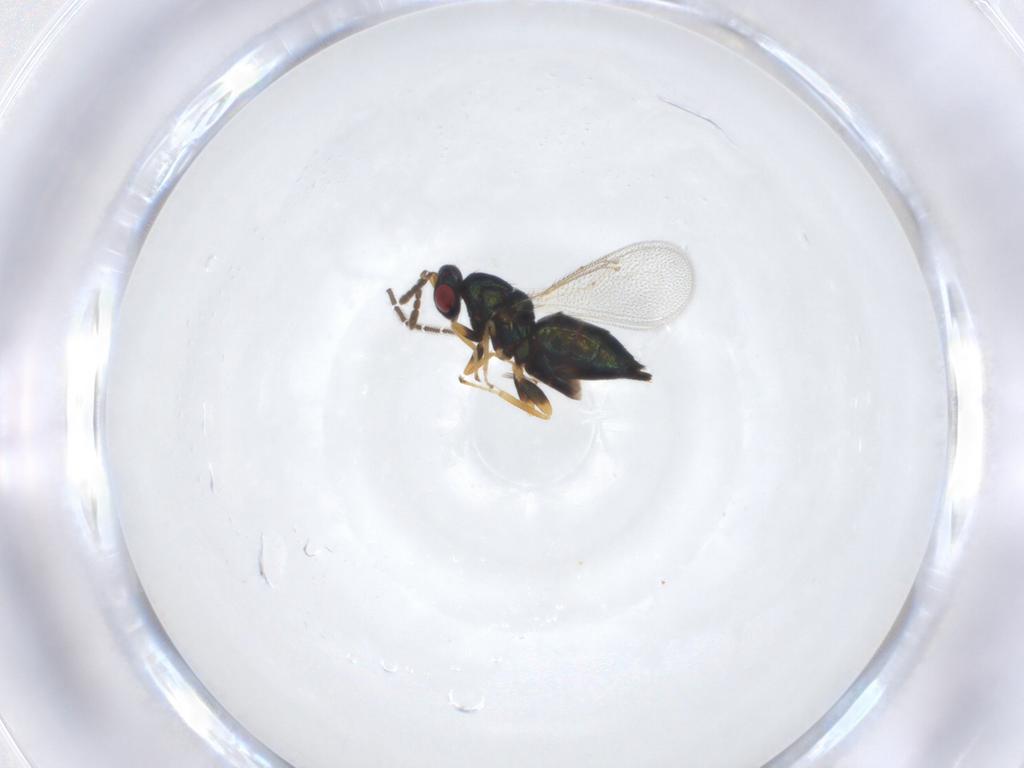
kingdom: Animalia
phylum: Arthropoda
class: Insecta
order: Hymenoptera
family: Eulophidae
